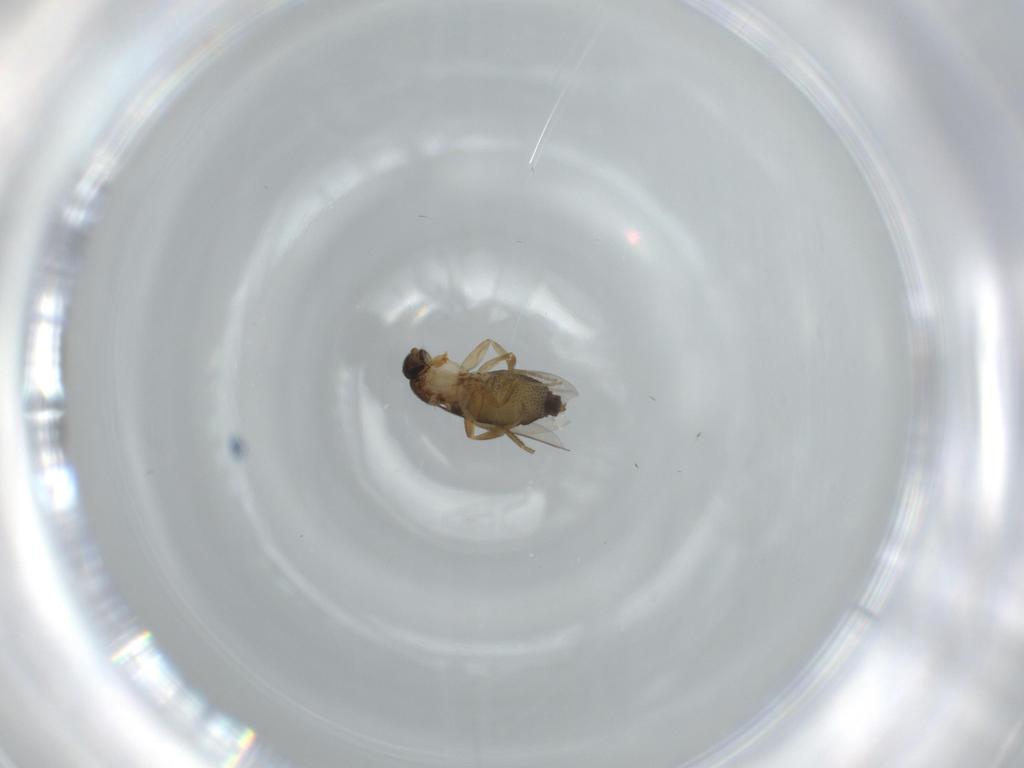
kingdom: Animalia
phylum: Arthropoda
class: Insecta
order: Diptera
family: Phoridae
